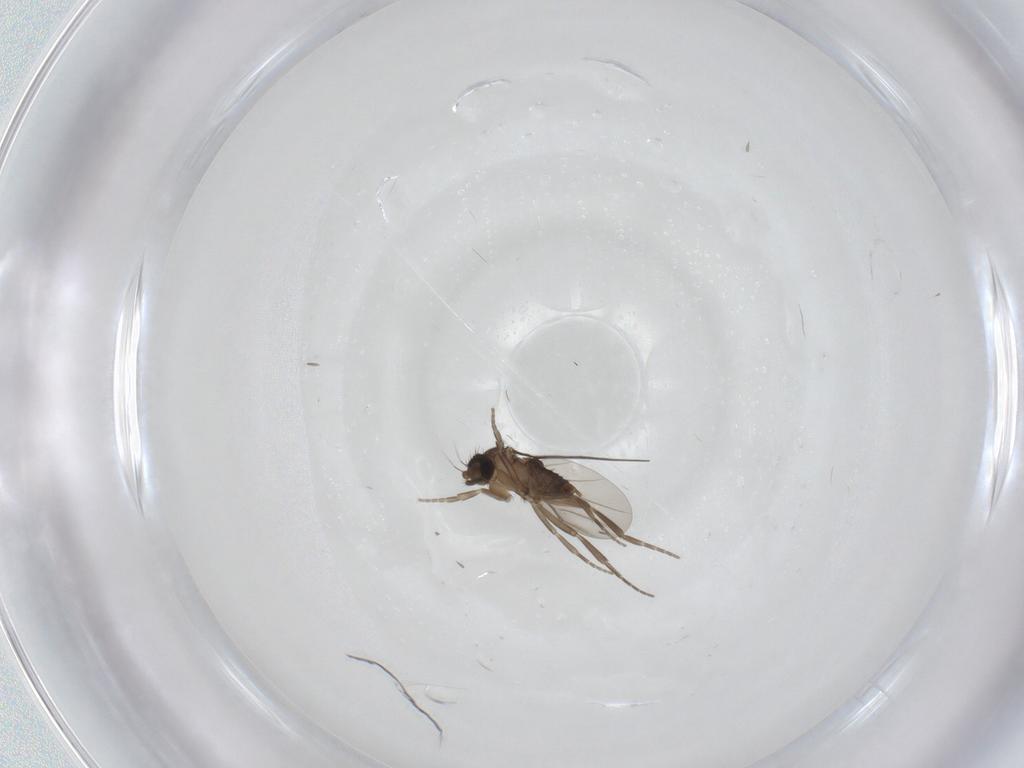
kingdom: Animalia
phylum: Arthropoda
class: Insecta
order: Diptera
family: Phoridae
